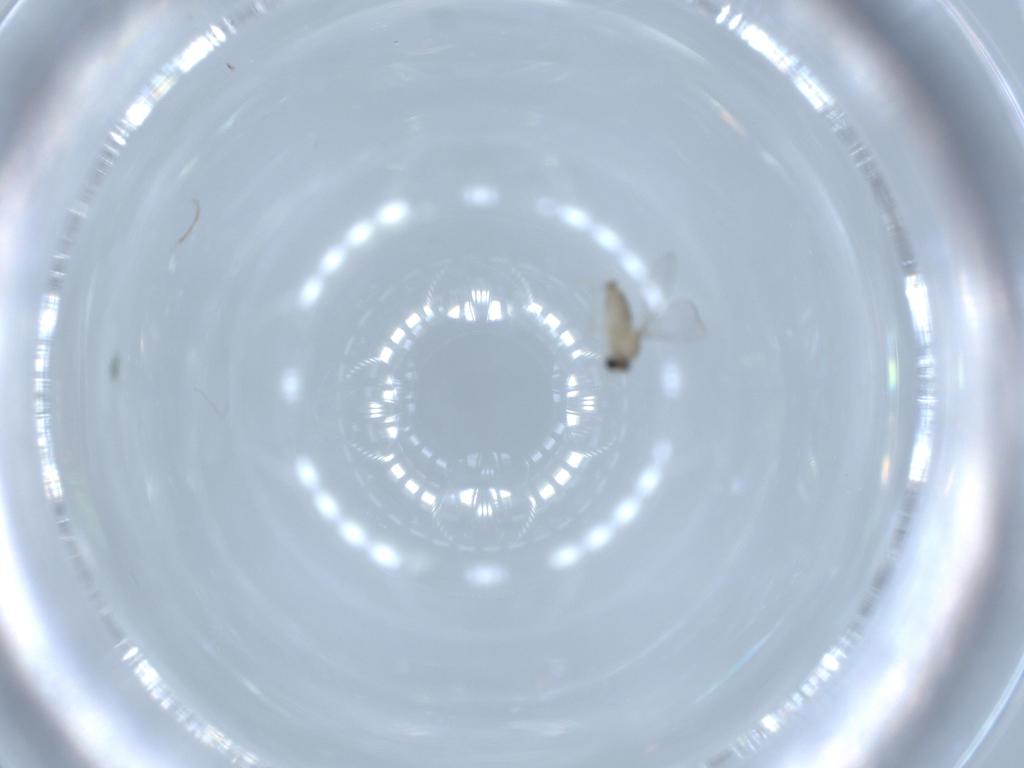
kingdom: Animalia
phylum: Arthropoda
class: Insecta
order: Diptera
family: Cecidomyiidae
